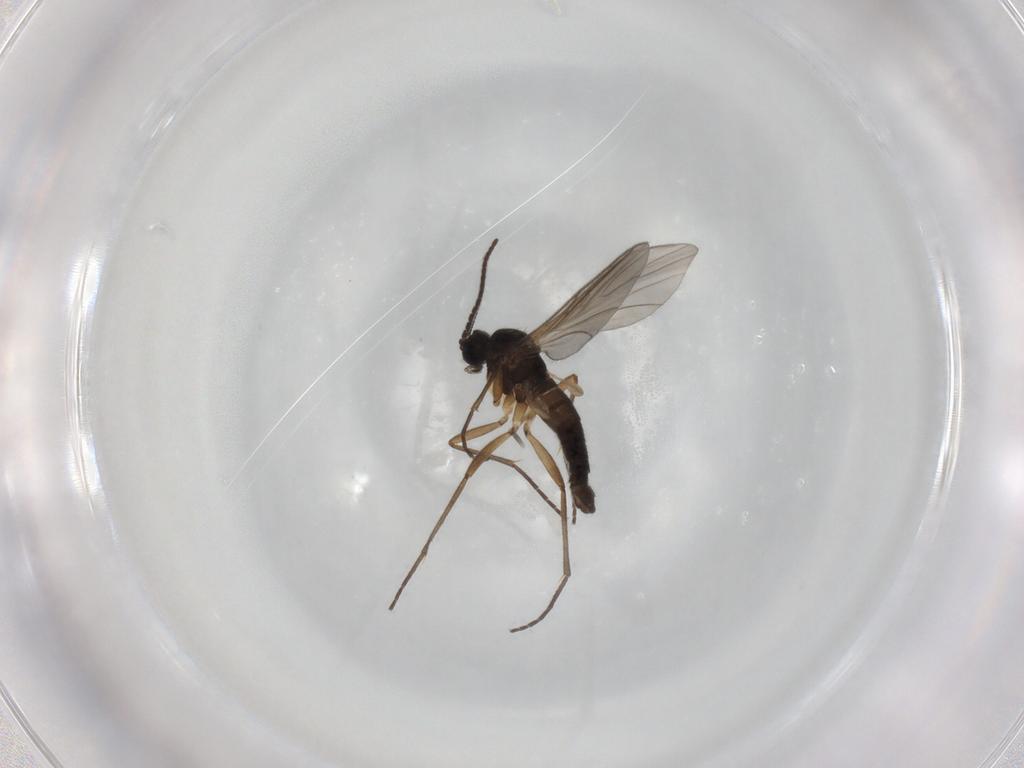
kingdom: Animalia
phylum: Arthropoda
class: Insecta
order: Diptera
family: Sciaridae
